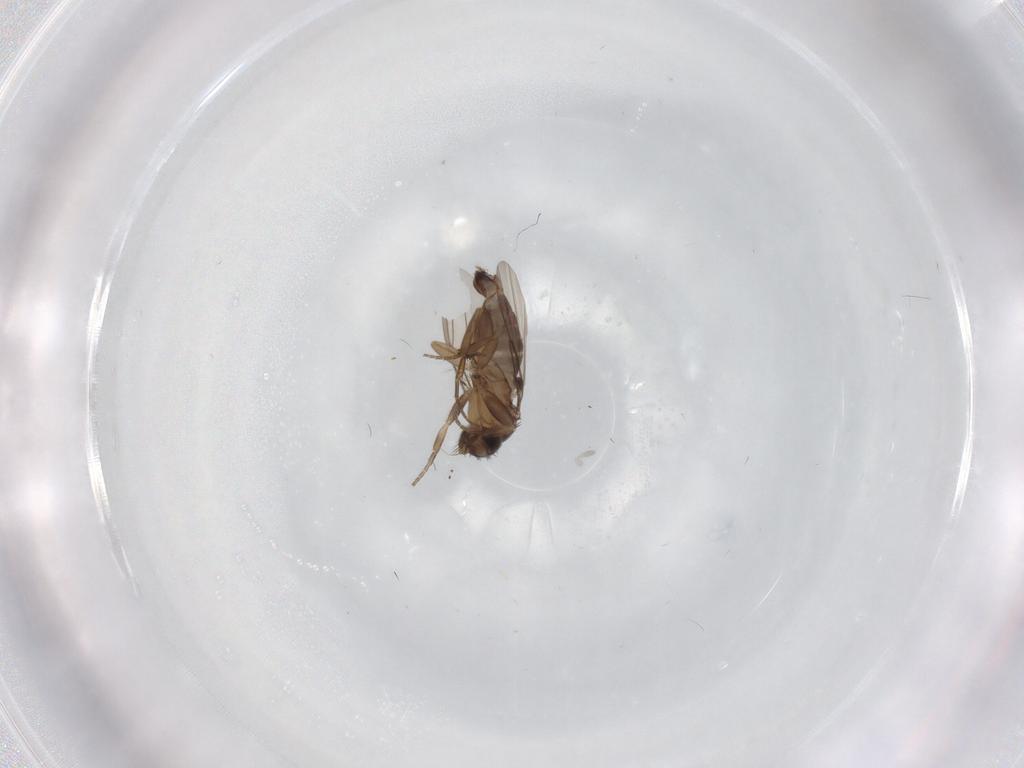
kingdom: Animalia
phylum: Arthropoda
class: Insecta
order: Diptera
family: Phoridae
